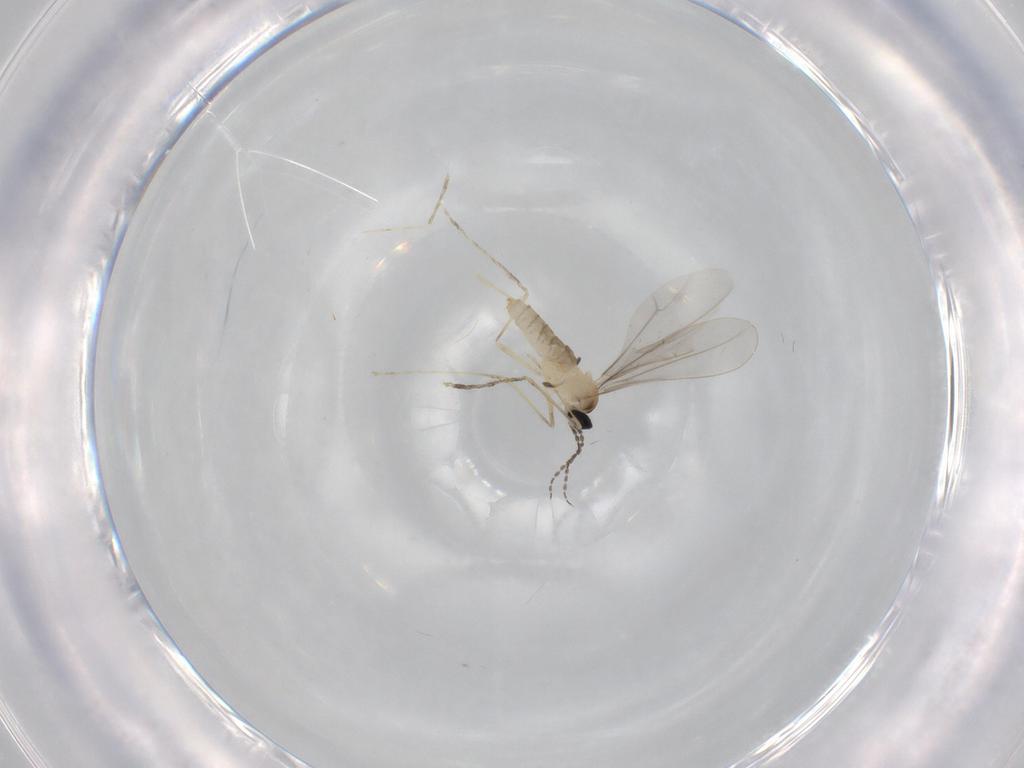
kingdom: Animalia
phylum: Arthropoda
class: Insecta
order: Diptera
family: Cecidomyiidae
